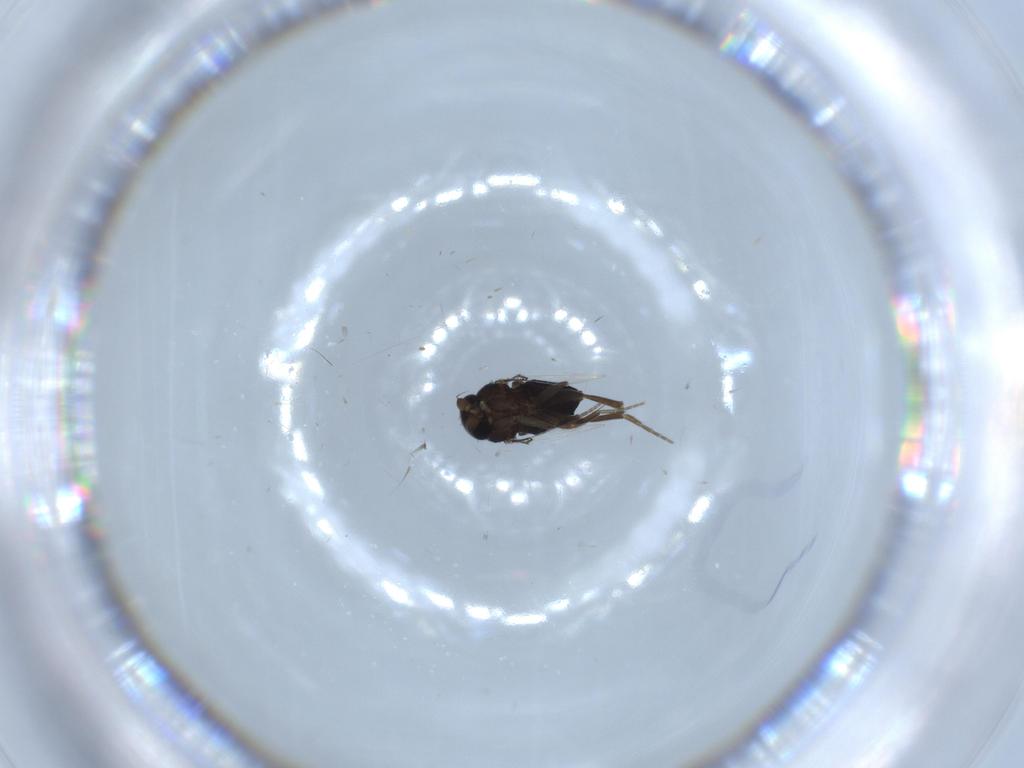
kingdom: Animalia
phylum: Arthropoda
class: Insecta
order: Diptera
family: Phoridae
